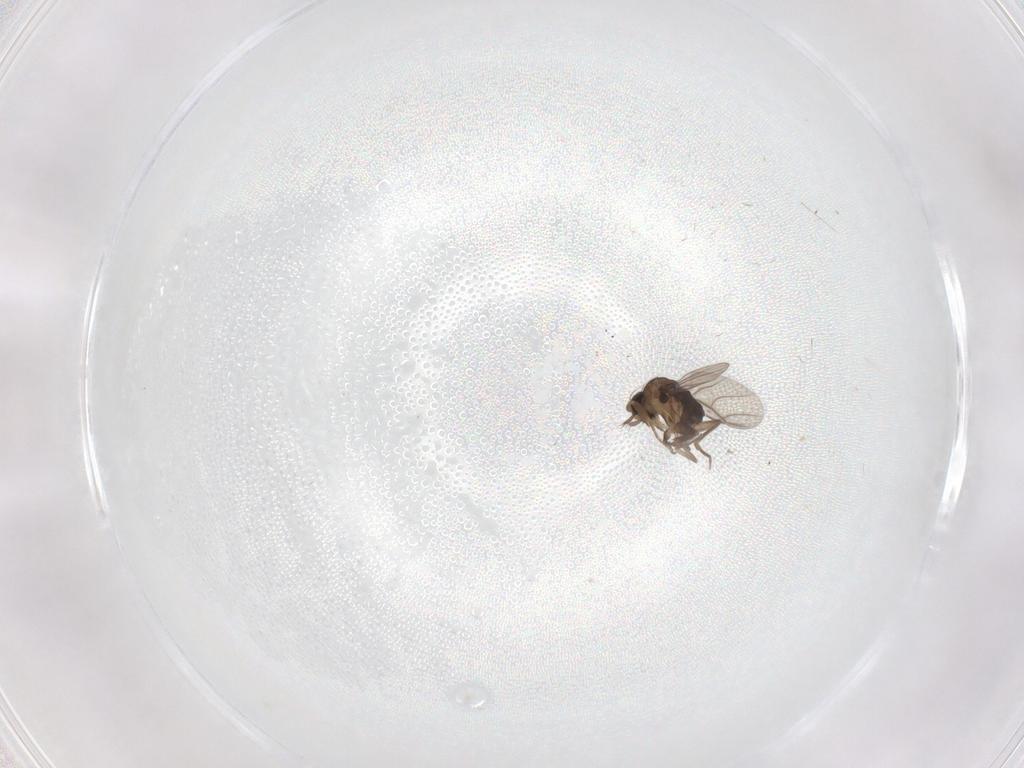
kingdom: Animalia
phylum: Arthropoda
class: Insecta
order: Diptera
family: Phoridae
